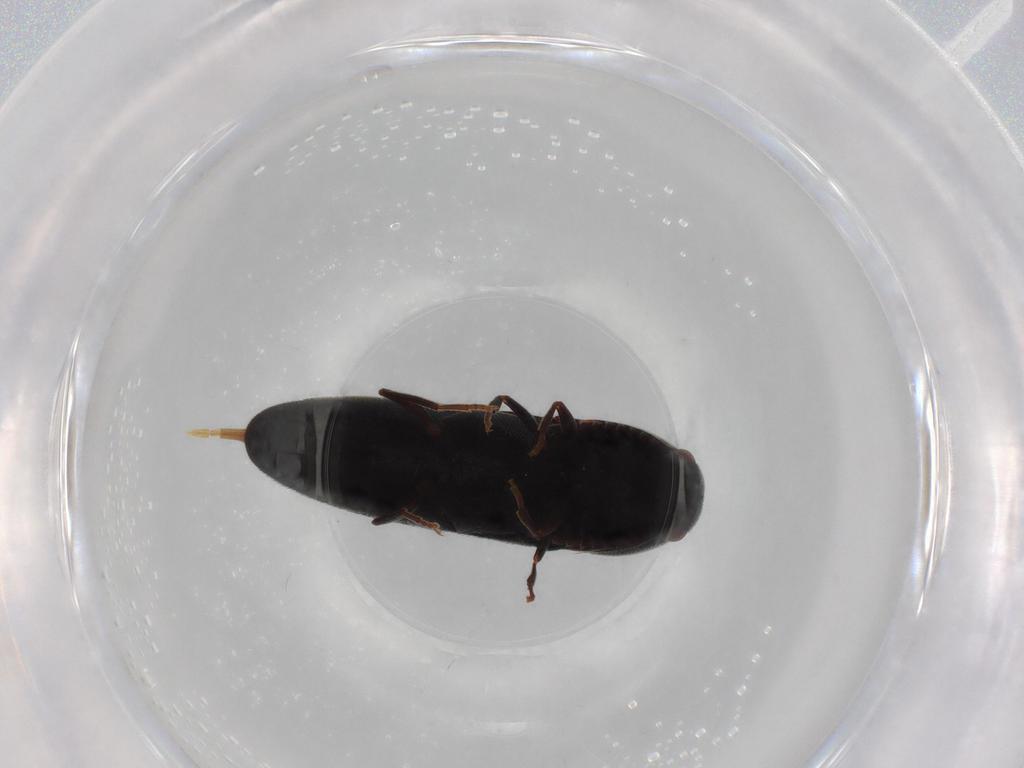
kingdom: Animalia
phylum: Arthropoda
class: Insecta
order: Coleoptera
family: Eucnemidae
